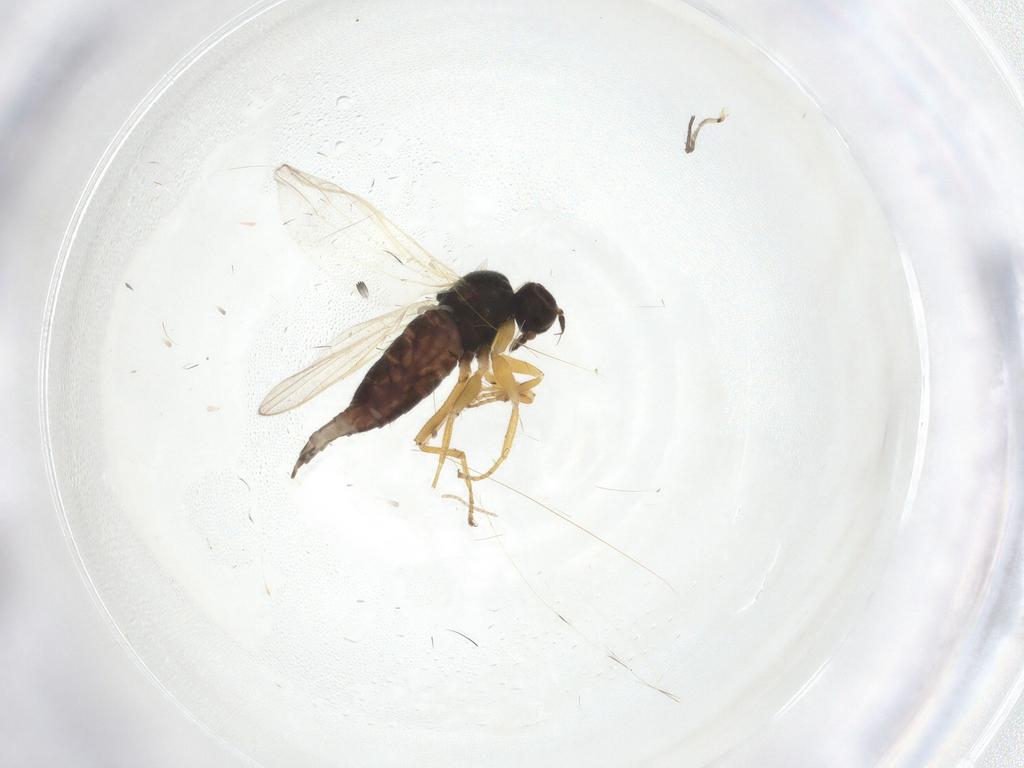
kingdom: Animalia
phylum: Arthropoda
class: Insecta
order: Diptera
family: Hybotidae
